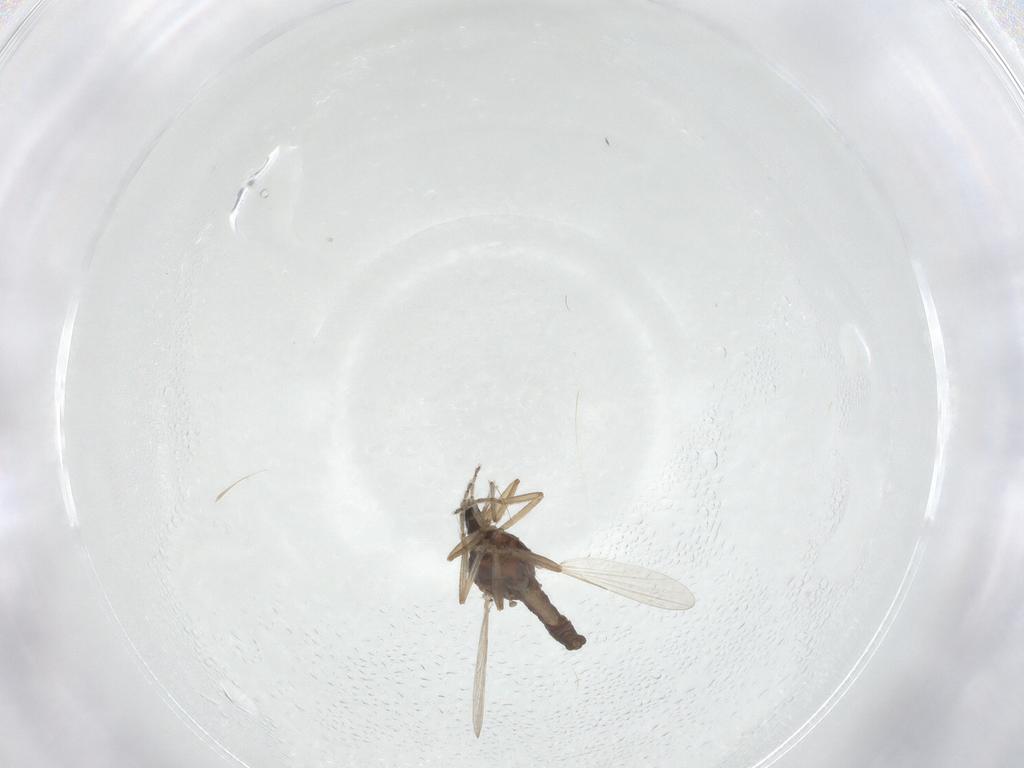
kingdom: Animalia
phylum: Arthropoda
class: Insecta
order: Diptera
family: Ceratopogonidae
